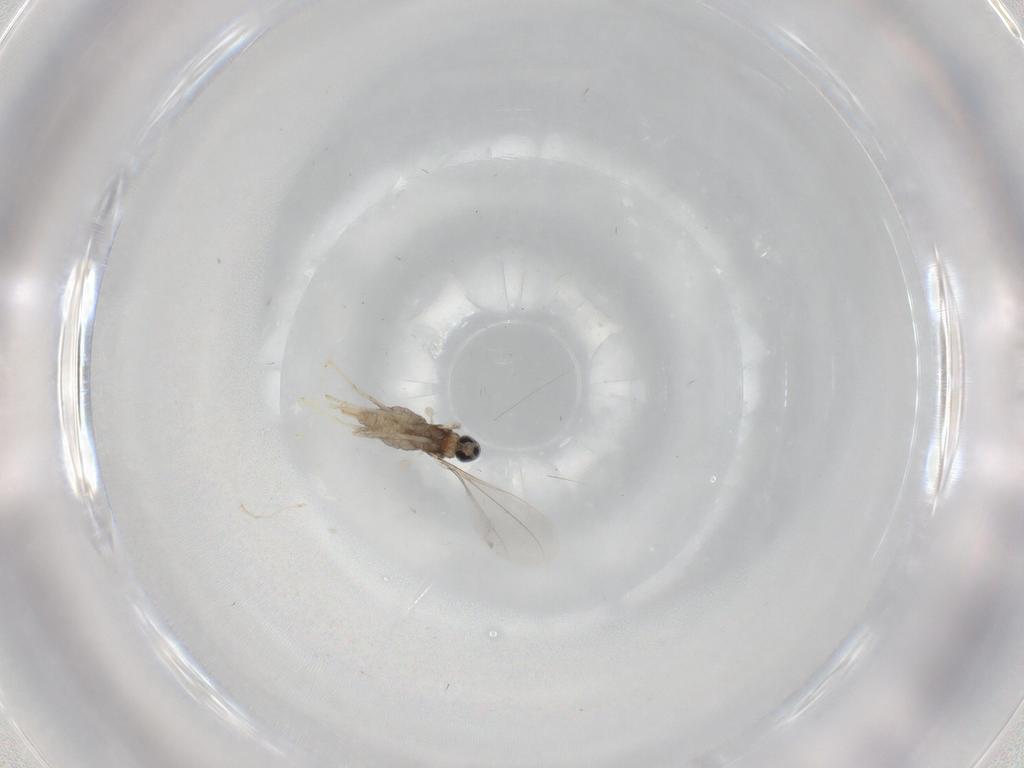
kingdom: Animalia
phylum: Arthropoda
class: Insecta
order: Diptera
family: Cecidomyiidae
